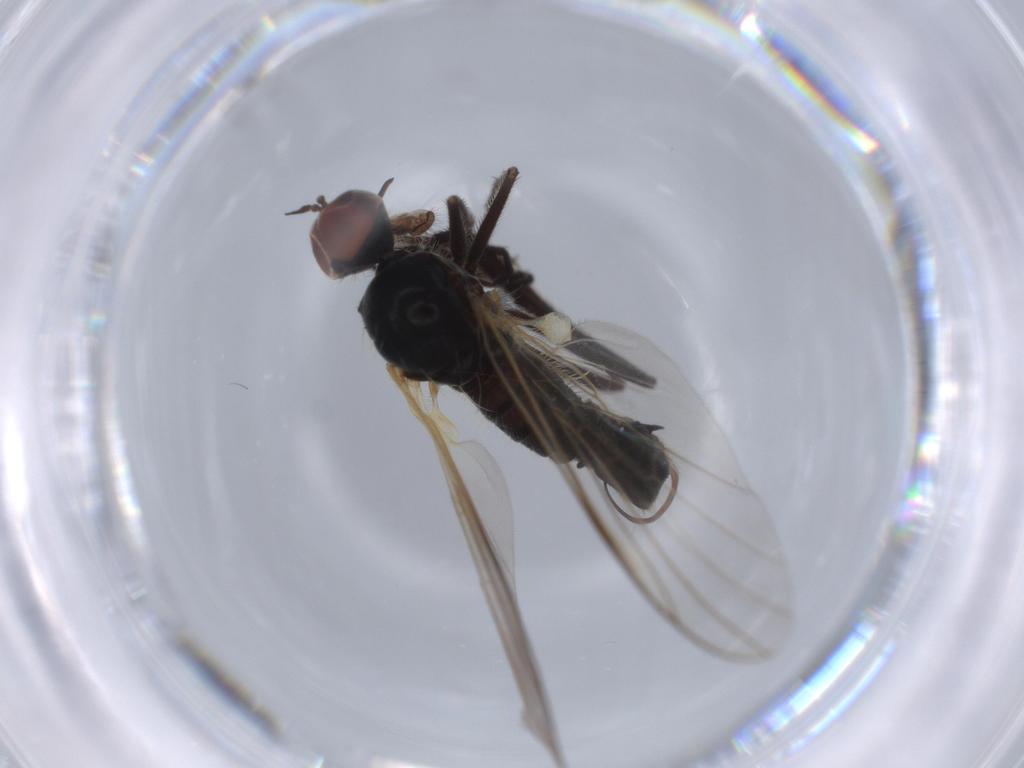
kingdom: Animalia
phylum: Arthropoda
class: Insecta
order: Diptera
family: Empididae
